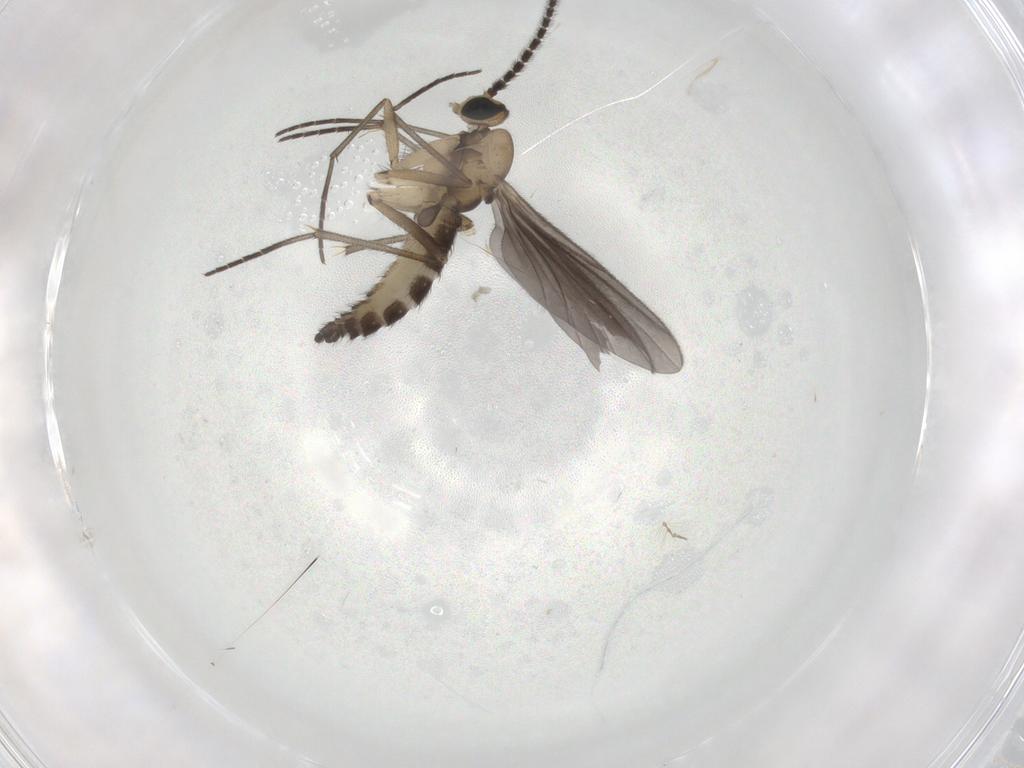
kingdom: Animalia
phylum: Arthropoda
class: Insecta
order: Diptera
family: Sciaridae
